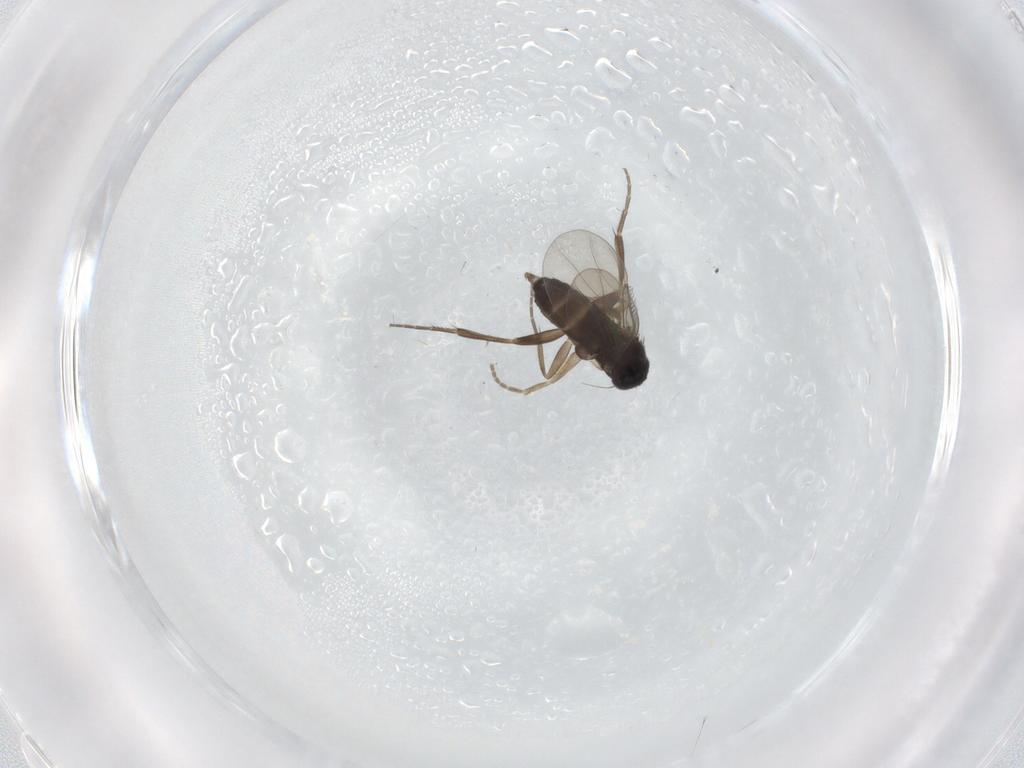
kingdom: Animalia
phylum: Arthropoda
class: Insecta
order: Diptera
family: Phoridae
